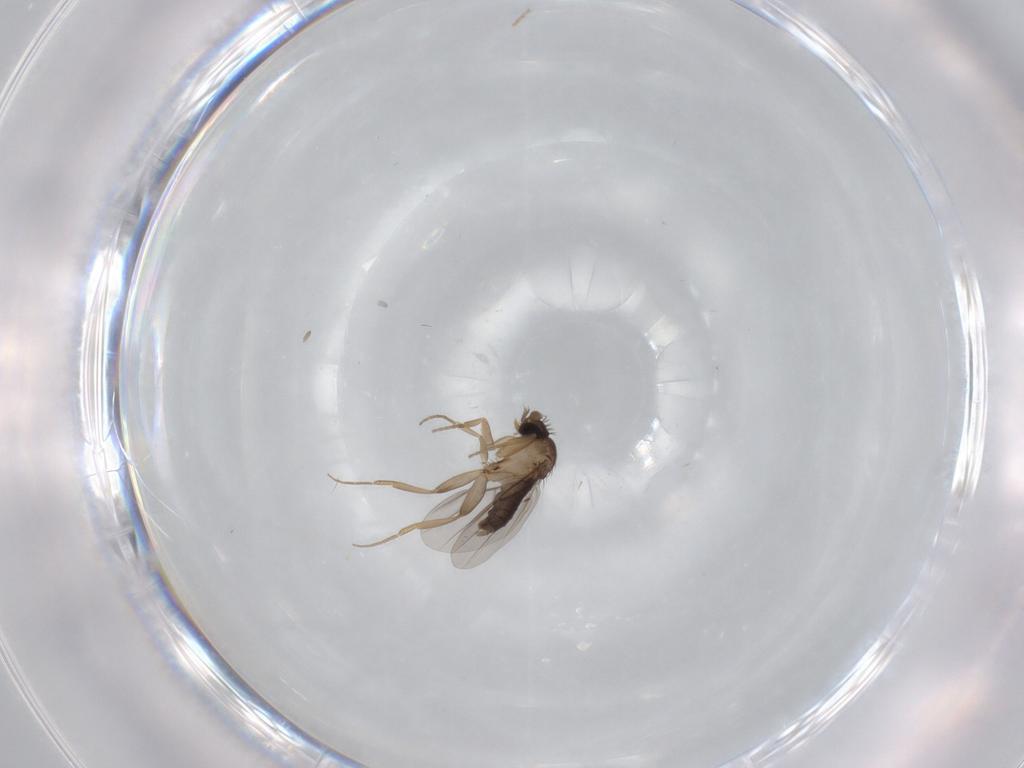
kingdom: Animalia
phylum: Arthropoda
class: Insecta
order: Diptera
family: Phoridae
